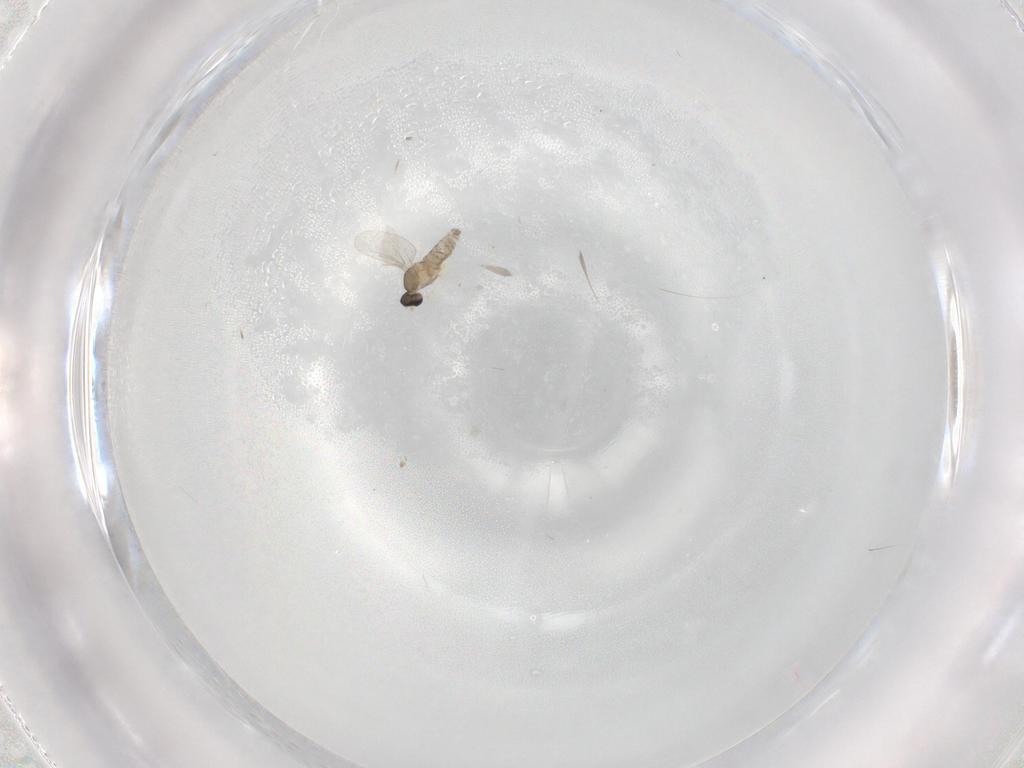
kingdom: Animalia
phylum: Arthropoda
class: Insecta
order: Diptera
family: Cecidomyiidae
